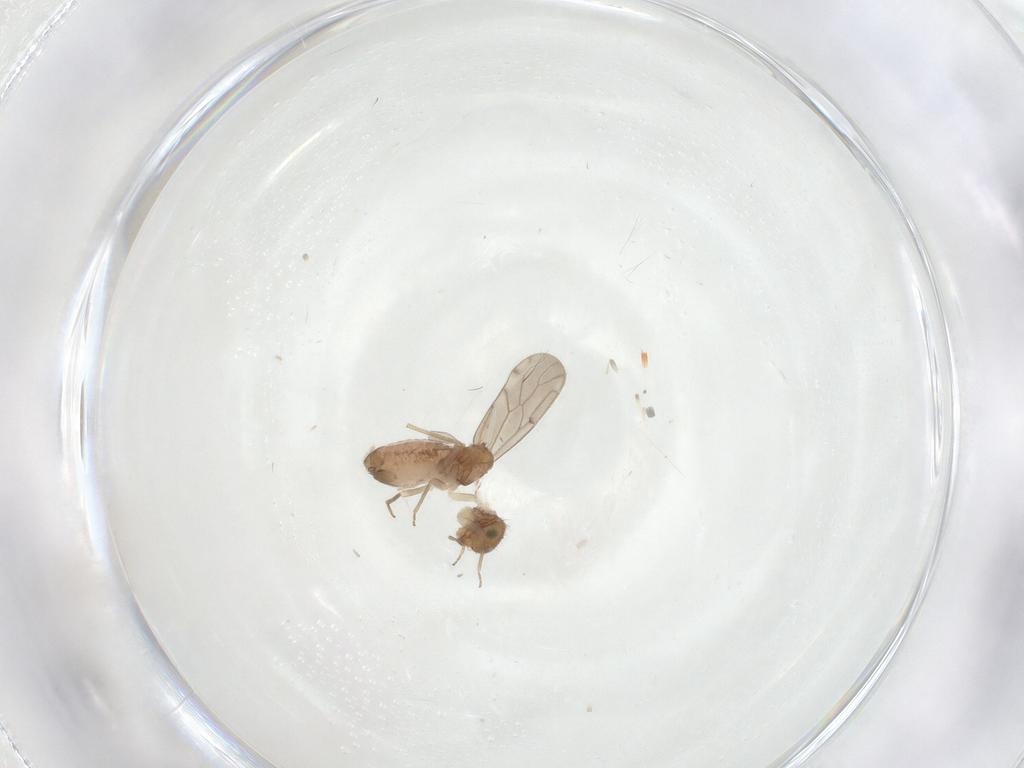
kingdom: Animalia
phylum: Arthropoda
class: Insecta
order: Psocodea
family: Ectopsocidae
